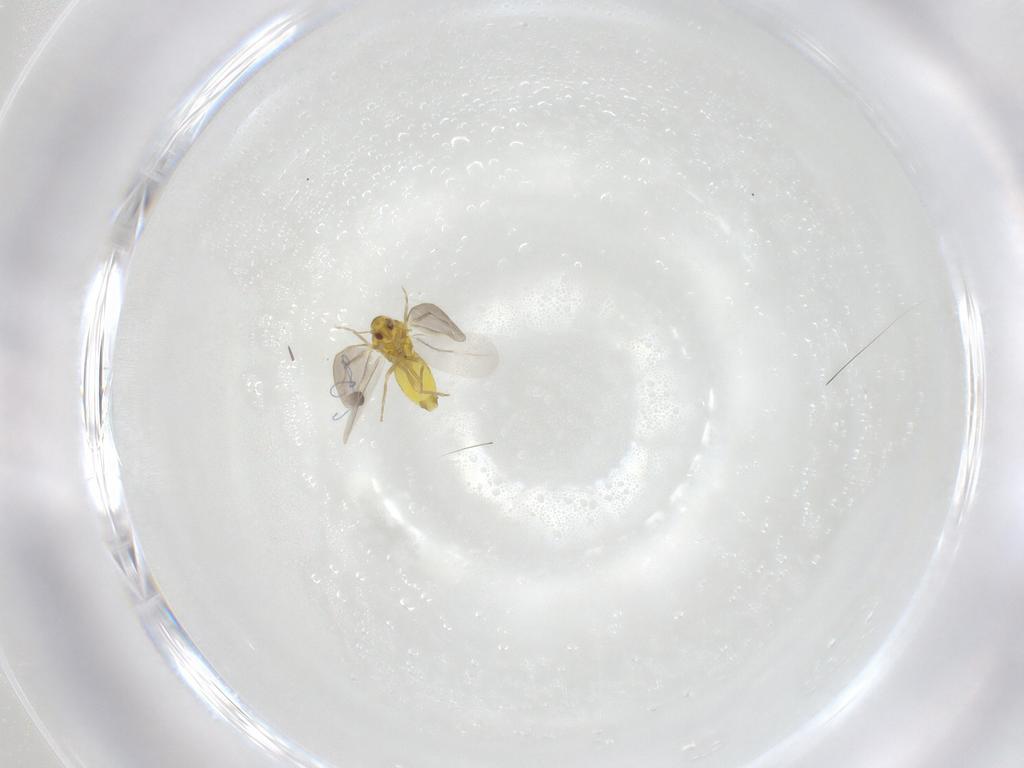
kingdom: Animalia
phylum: Arthropoda
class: Insecta
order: Hemiptera
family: Aleyrodidae
